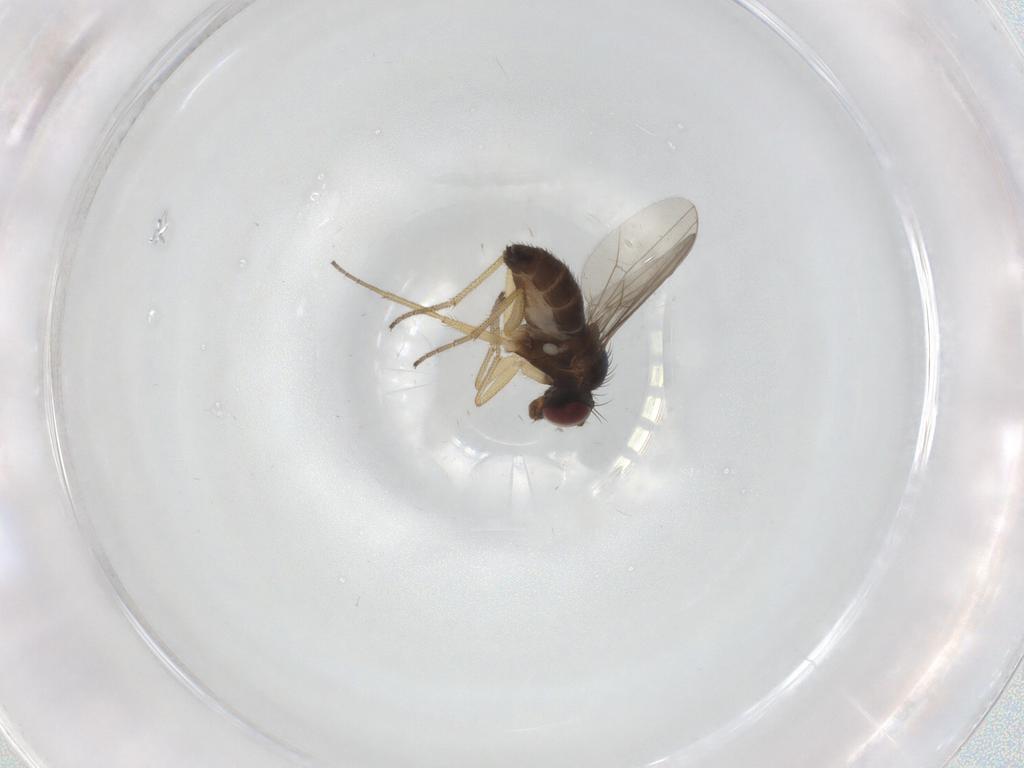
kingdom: Animalia
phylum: Arthropoda
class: Insecta
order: Diptera
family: Dolichopodidae
